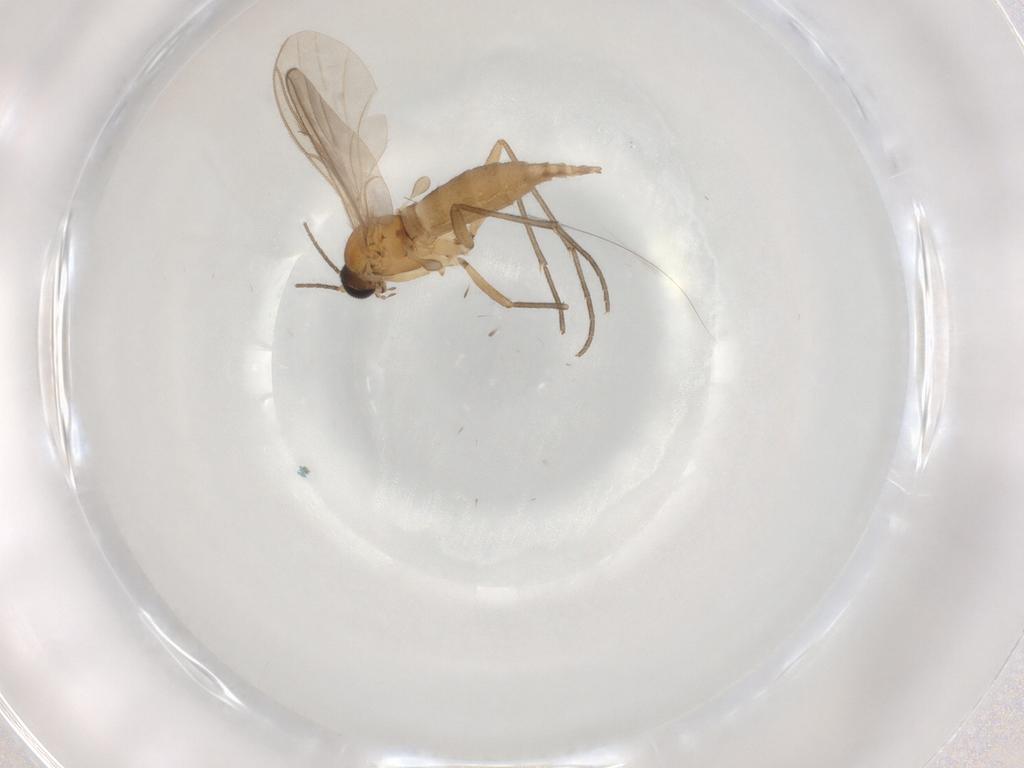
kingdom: Animalia
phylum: Arthropoda
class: Insecta
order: Diptera
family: Sciaridae
